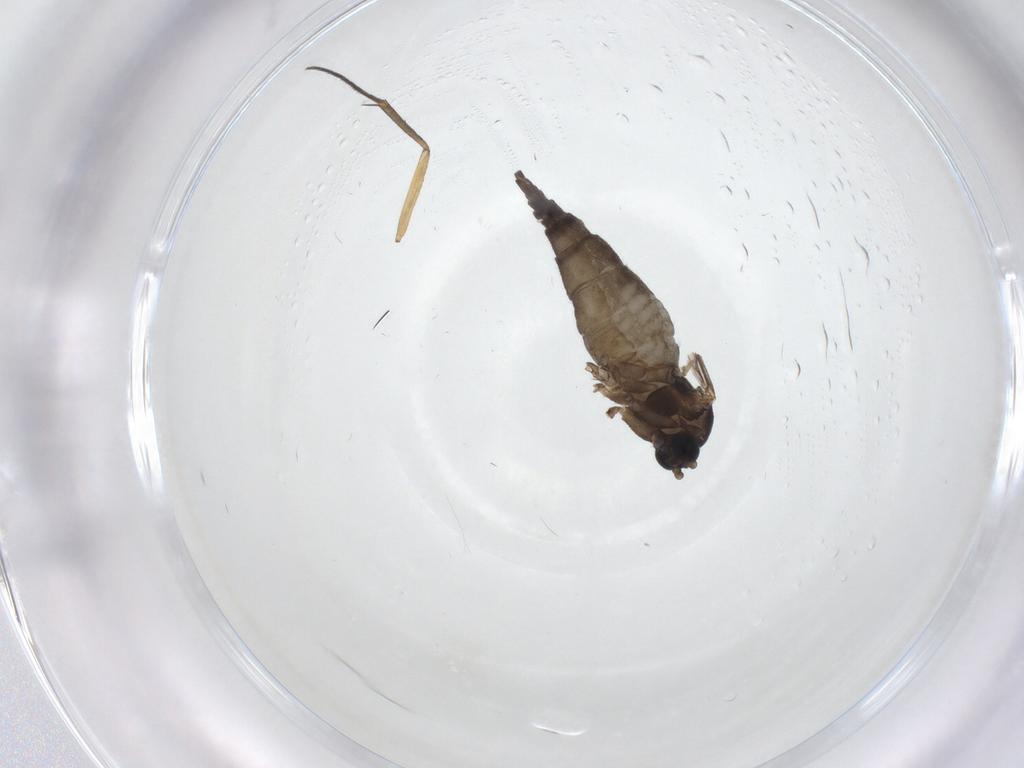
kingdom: Animalia
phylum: Arthropoda
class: Insecta
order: Diptera
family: Sciaridae
